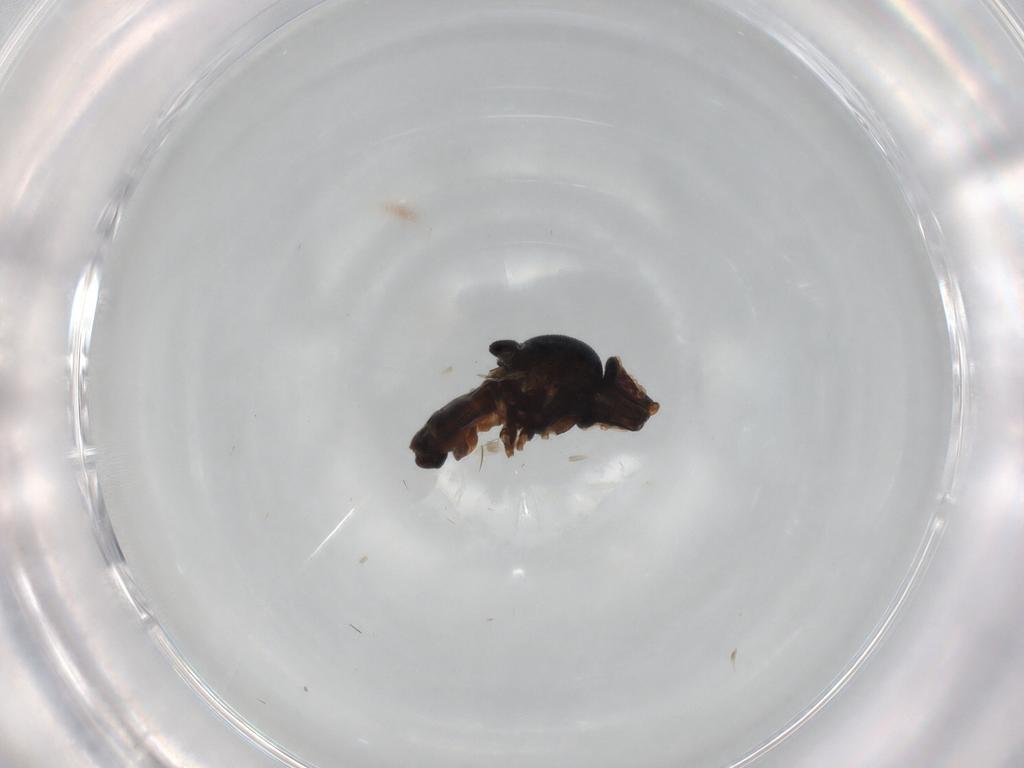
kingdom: Animalia
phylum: Arthropoda
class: Insecta
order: Diptera
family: Chloropidae
